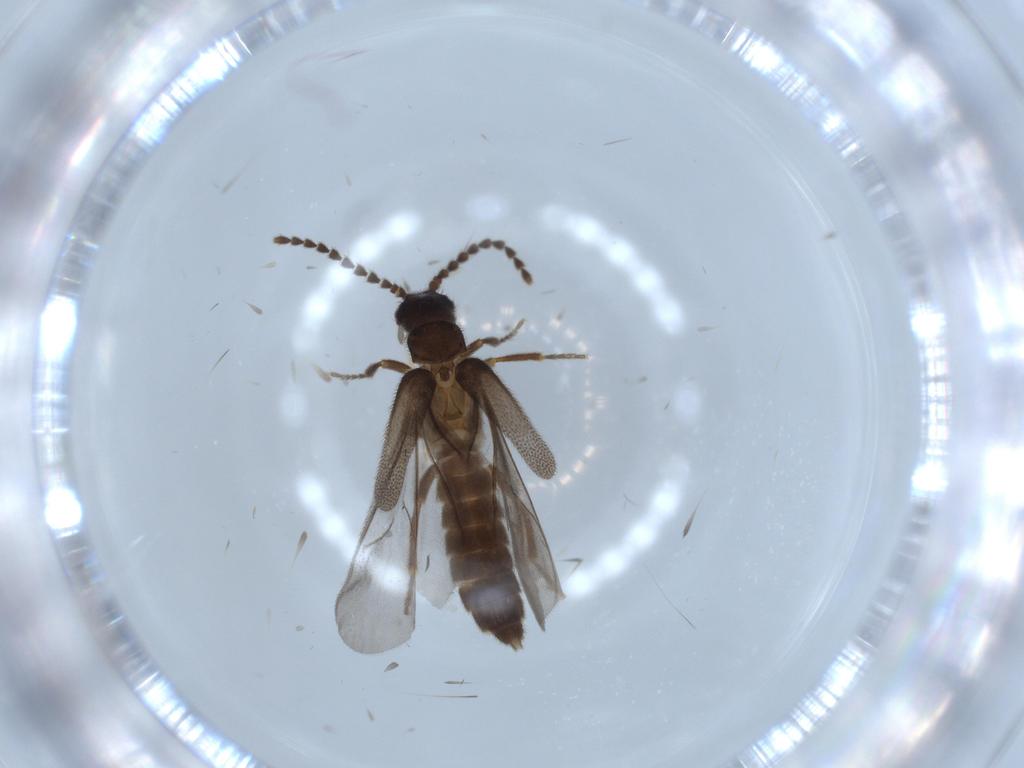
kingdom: Animalia
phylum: Arthropoda
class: Insecta
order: Coleoptera
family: Omethidae
